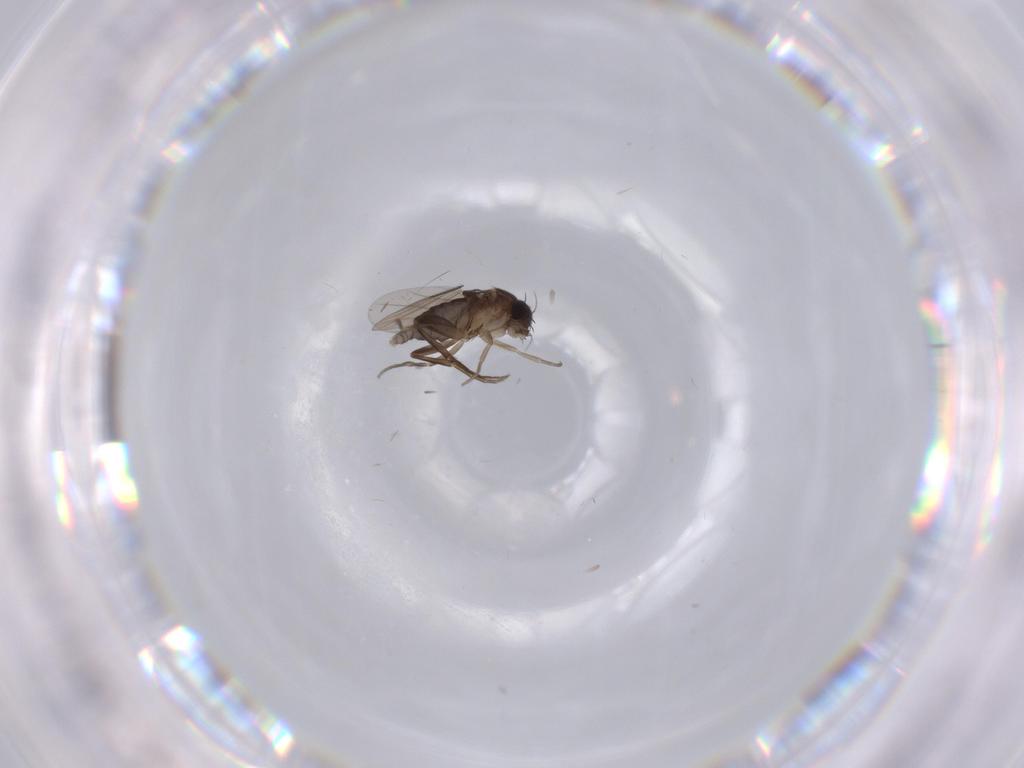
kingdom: Animalia
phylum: Arthropoda
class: Insecta
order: Diptera
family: Phoridae
